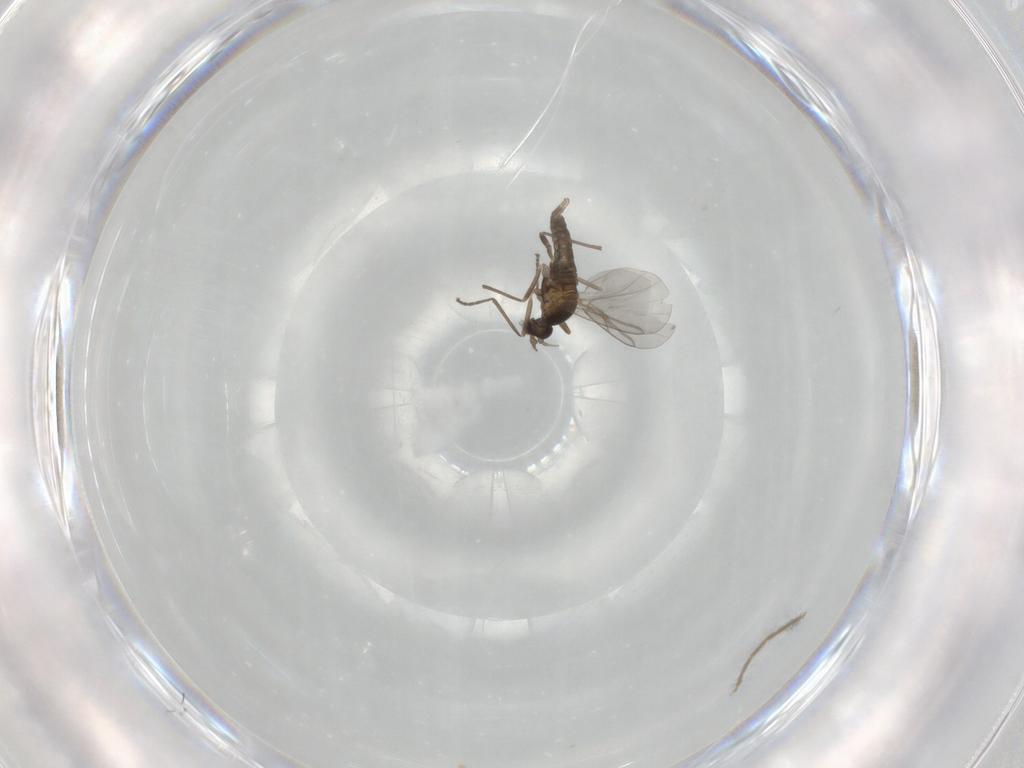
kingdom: Animalia
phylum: Arthropoda
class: Insecta
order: Diptera
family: Cecidomyiidae
